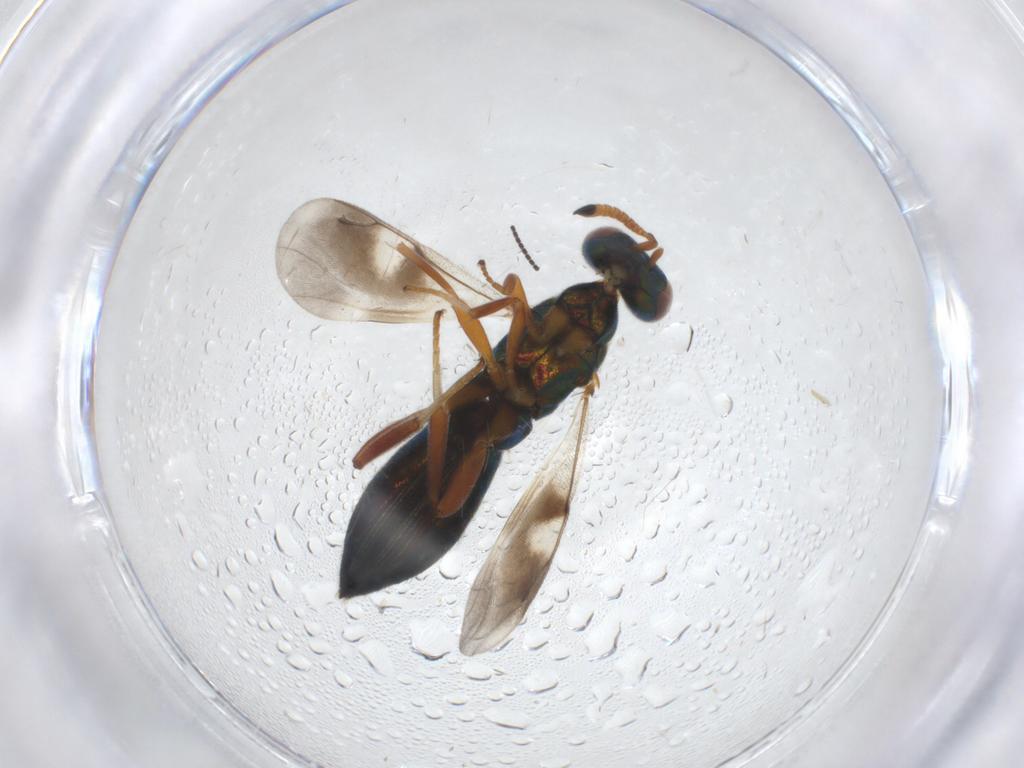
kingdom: Animalia
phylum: Arthropoda
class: Insecta
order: Hymenoptera
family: Cleonyminae
